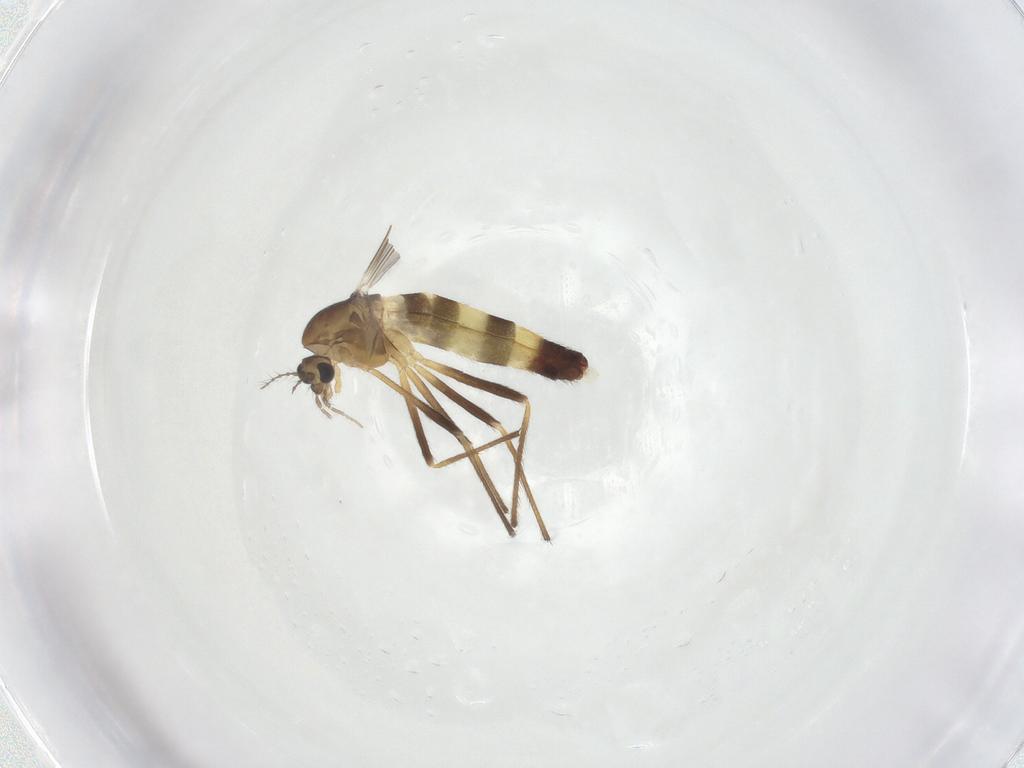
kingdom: Animalia
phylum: Arthropoda
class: Insecta
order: Diptera
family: Chironomidae
